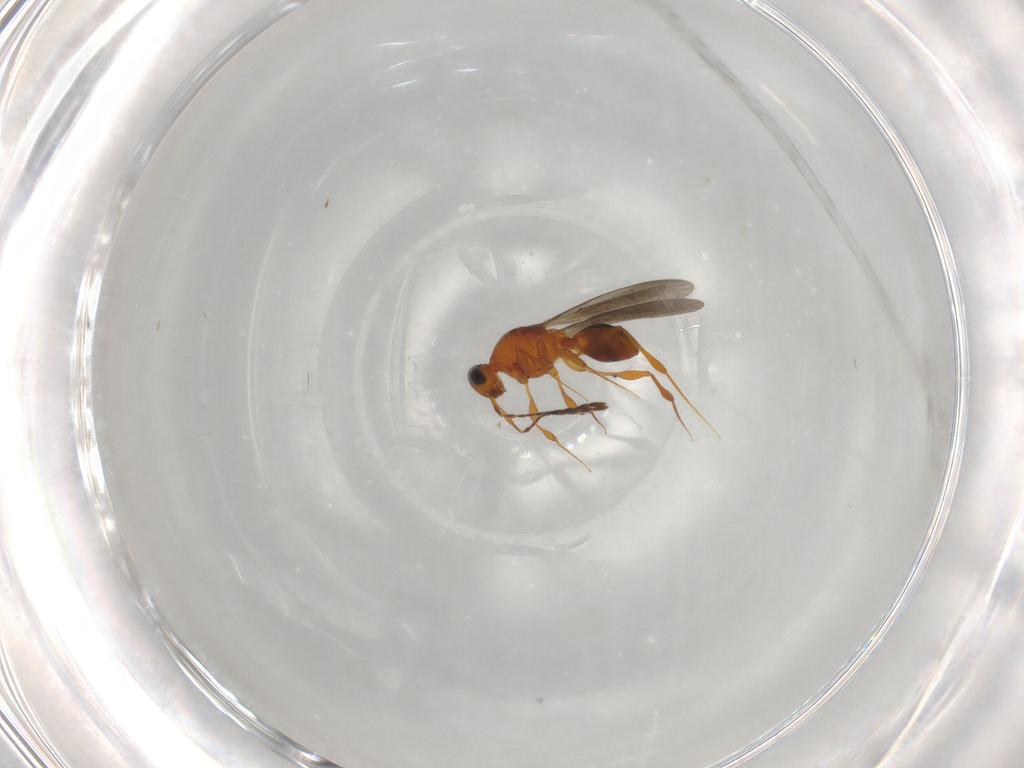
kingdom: Animalia
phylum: Arthropoda
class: Insecta
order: Hymenoptera
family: Platygastridae
